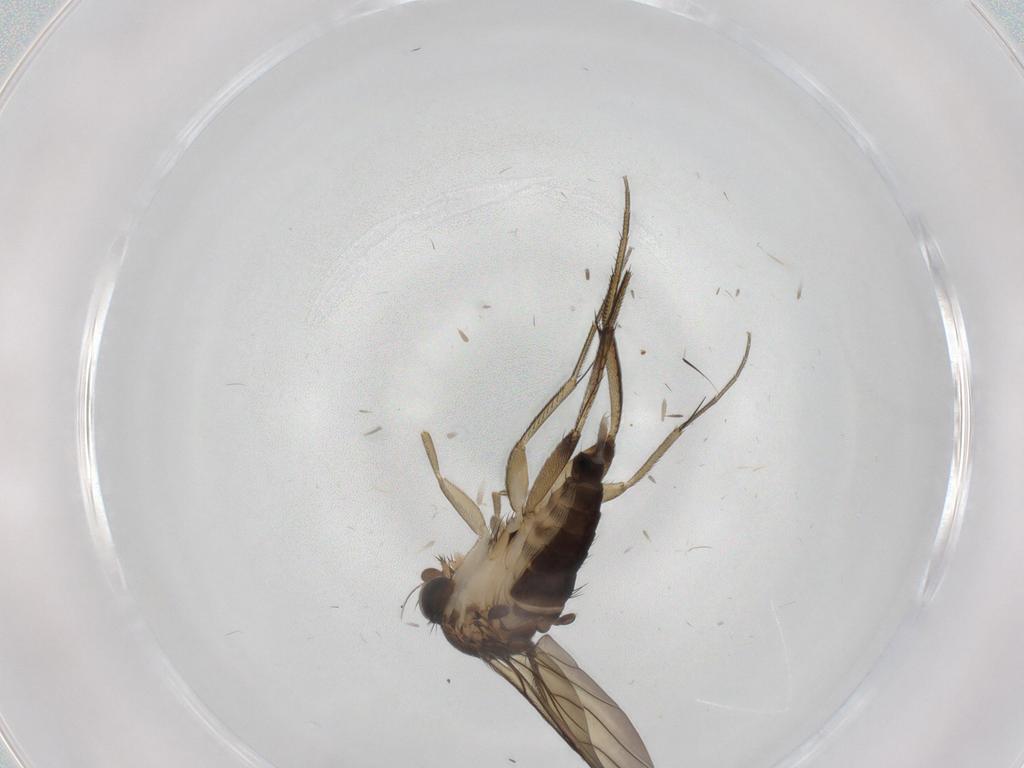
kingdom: Animalia
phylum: Arthropoda
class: Insecta
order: Diptera
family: Phoridae
